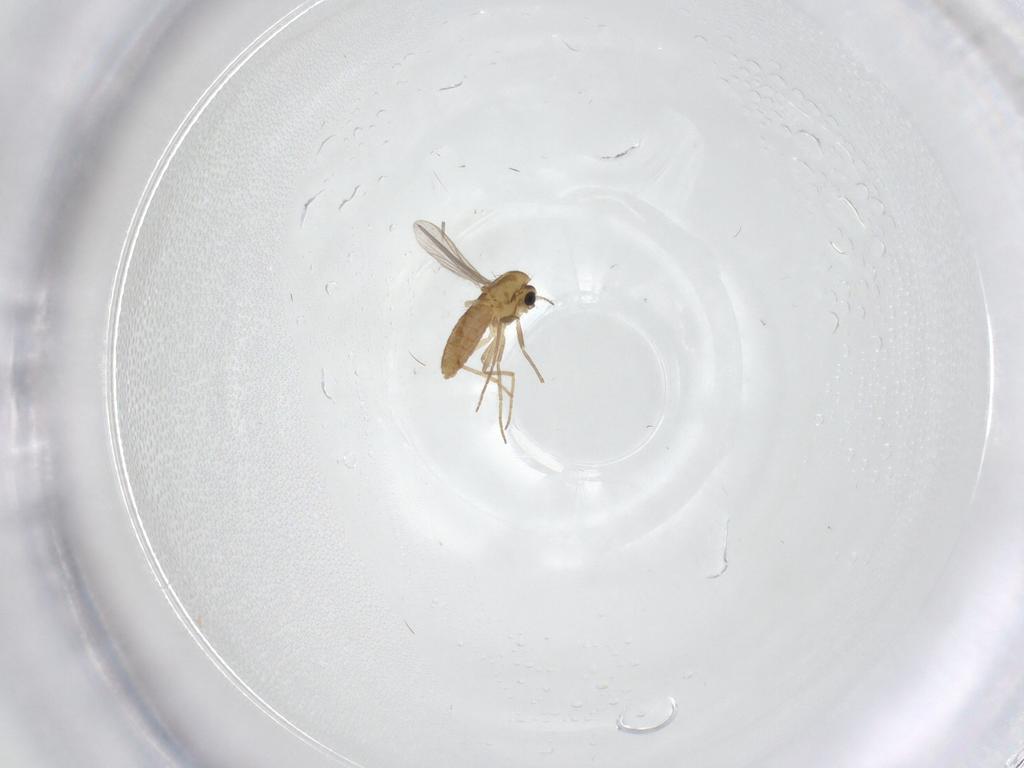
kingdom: Animalia
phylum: Arthropoda
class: Insecta
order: Diptera
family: Chironomidae
